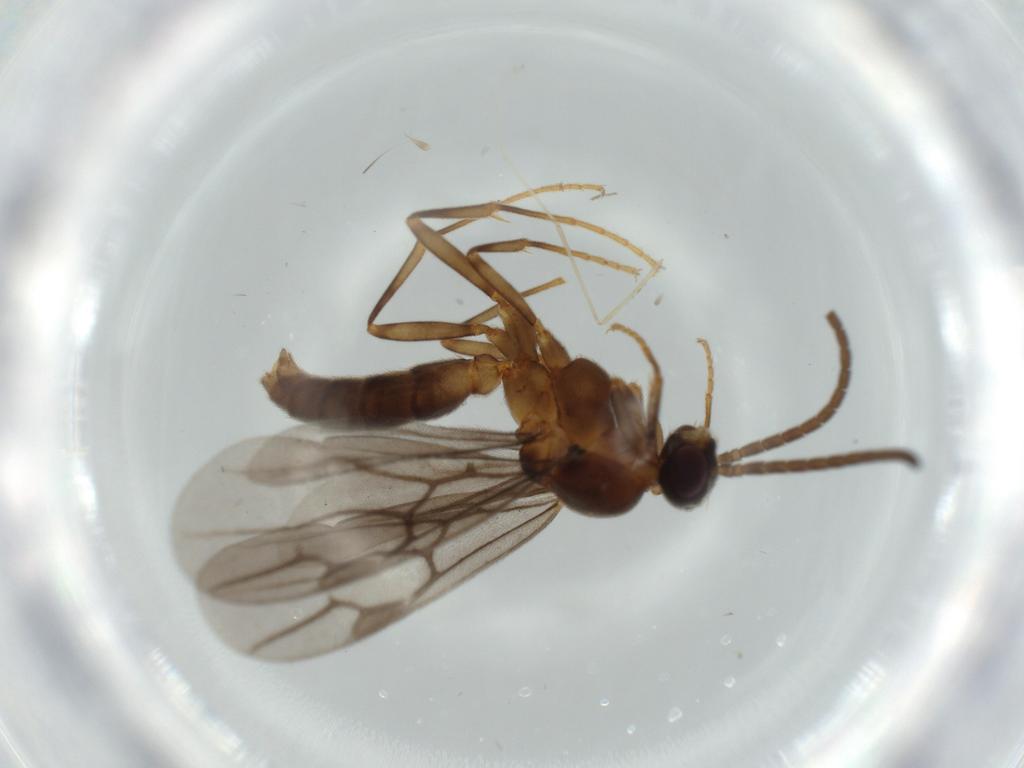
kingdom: Animalia
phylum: Arthropoda
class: Insecta
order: Hymenoptera
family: Formicidae
